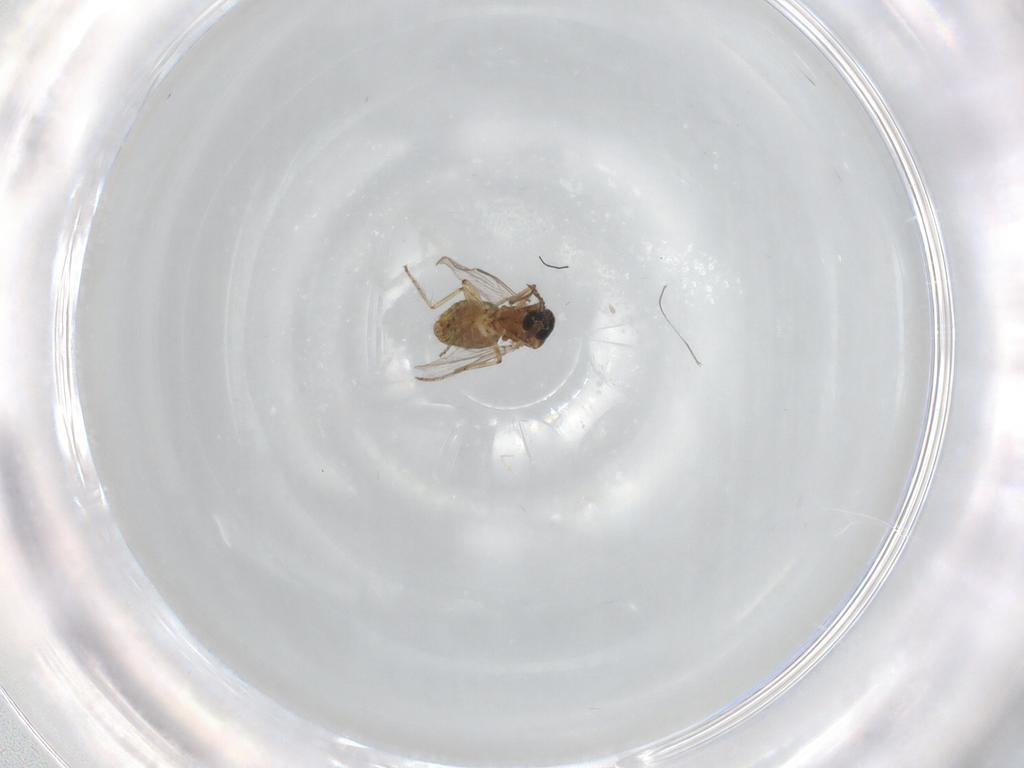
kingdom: Animalia
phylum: Arthropoda
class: Insecta
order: Diptera
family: Ceratopogonidae
